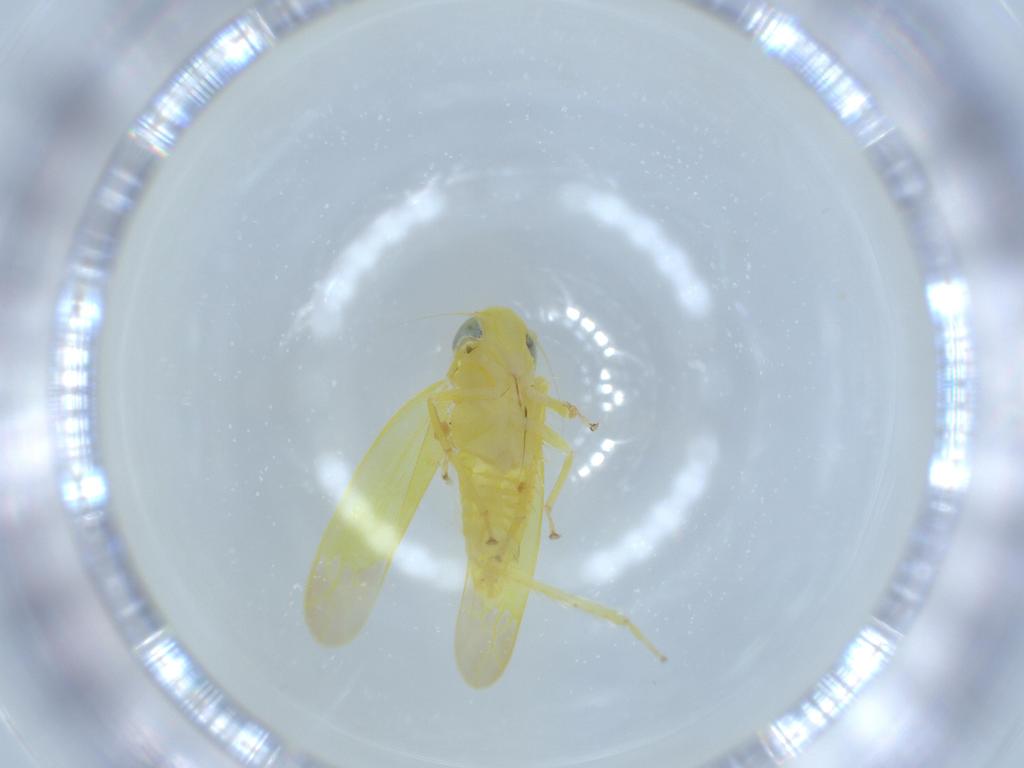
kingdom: Animalia
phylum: Arthropoda
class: Insecta
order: Hemiptera
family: Cicadellidae
